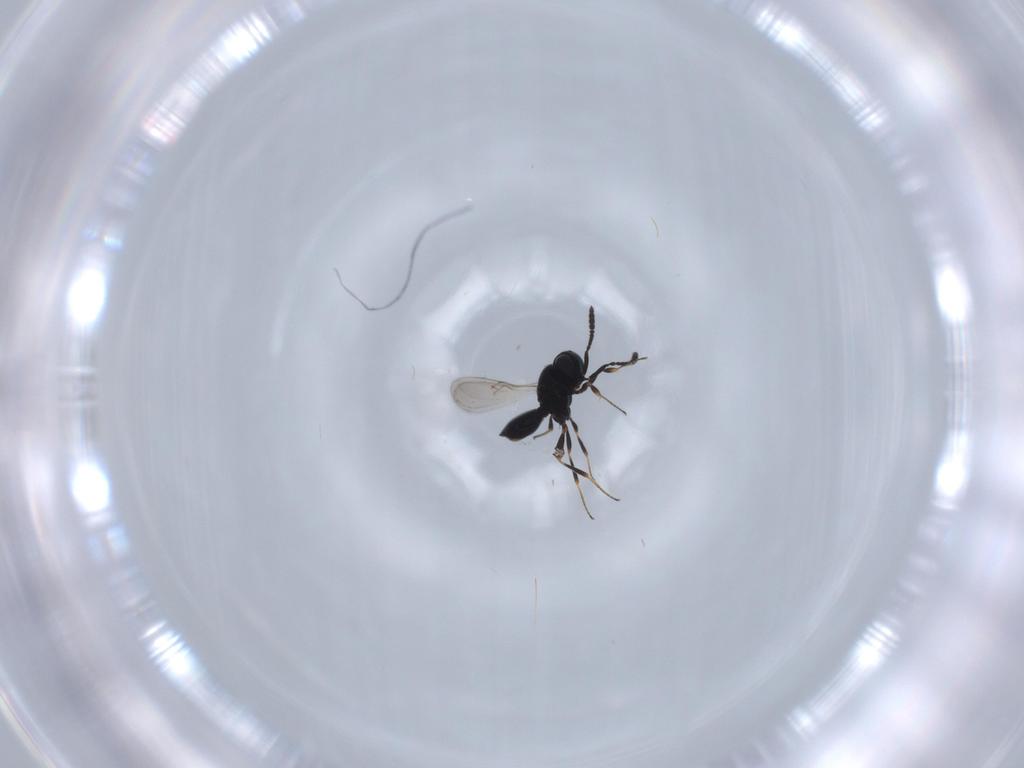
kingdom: Animalia
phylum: Arthropoda
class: Insecta
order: Hymenoptera
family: Scelionidae
